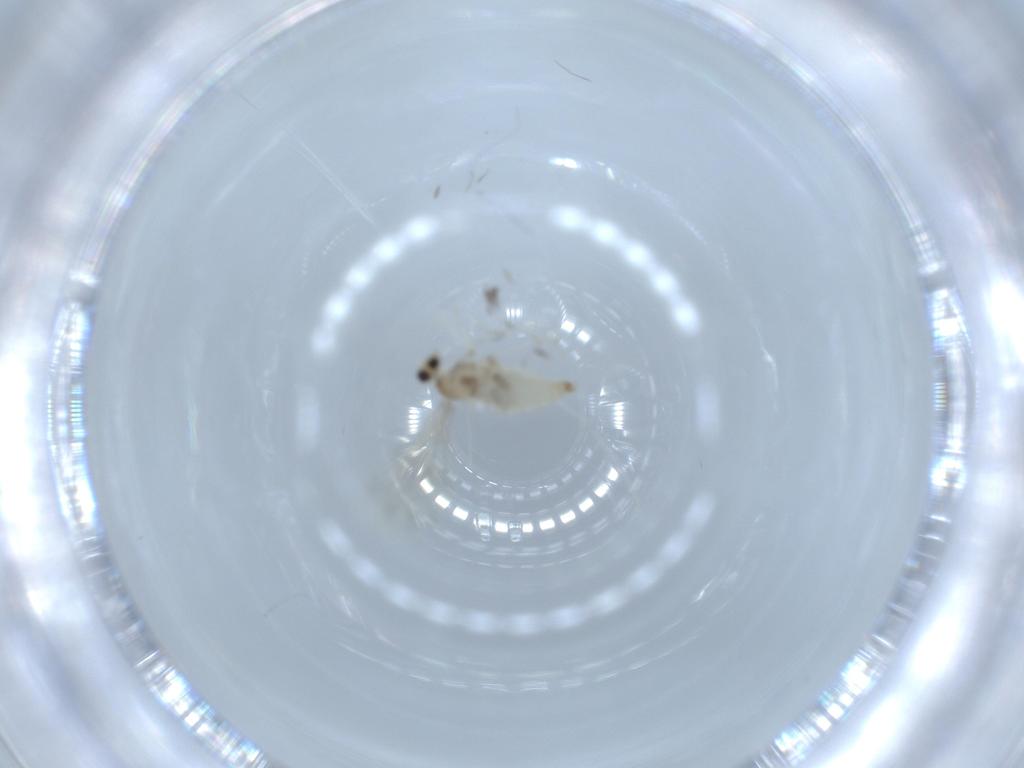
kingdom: Animalia
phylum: Arthropoda
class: Insecta
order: Diptera
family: Cecidomyiidae
